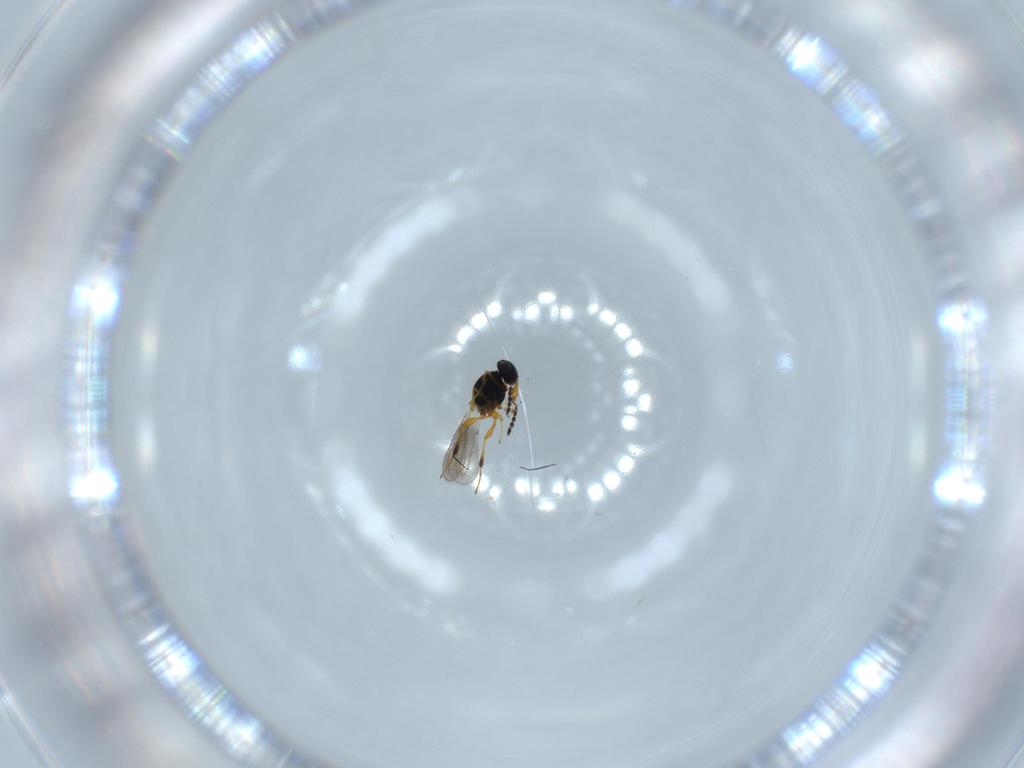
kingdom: Animalia
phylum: Arthropoda
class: Insecta
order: Hymenoptera
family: Platygastridae
